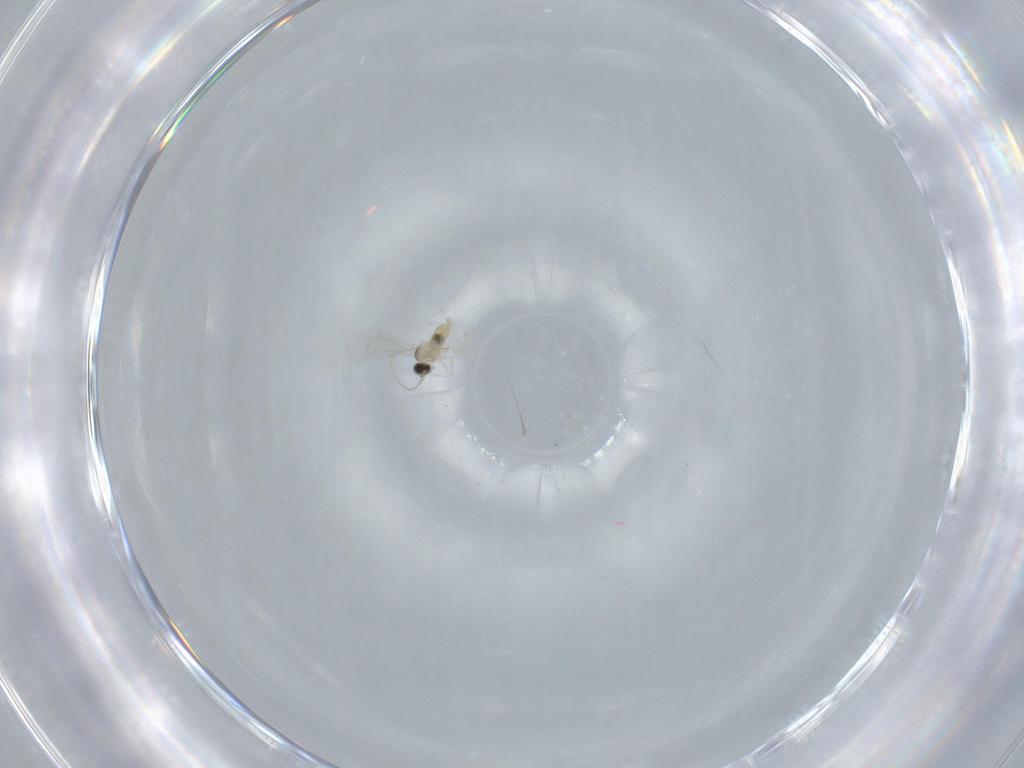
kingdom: Animalia
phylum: Arthropoda
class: Insecta
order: Diptera
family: Cecidomyiidae
